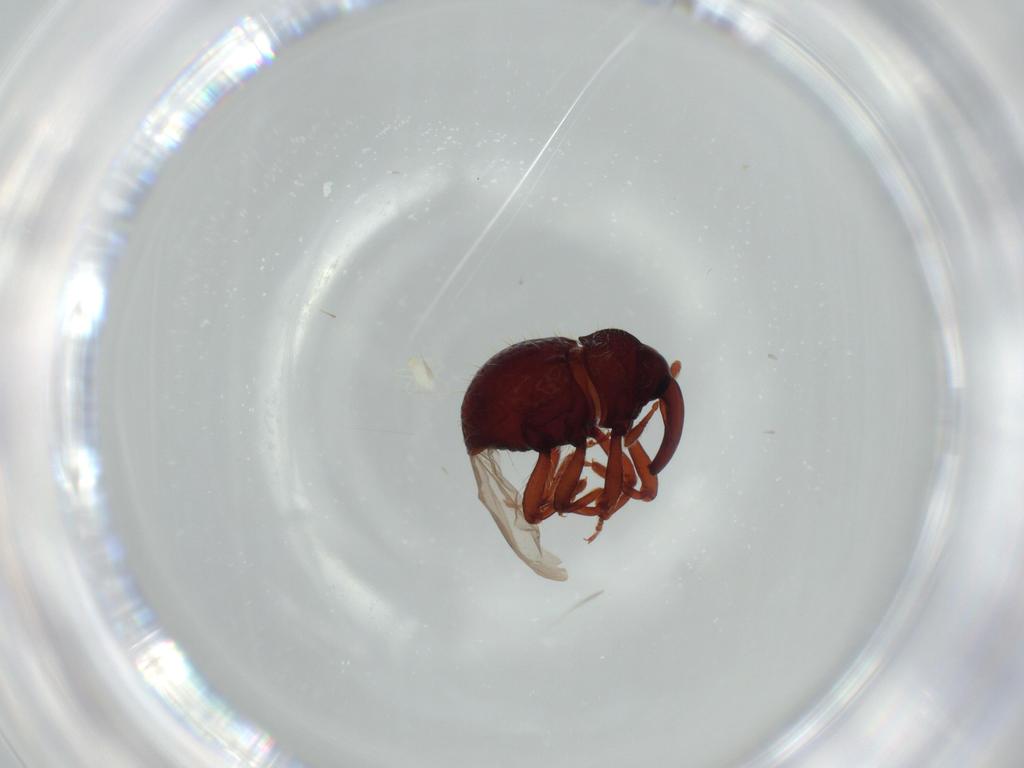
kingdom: Animalia
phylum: Arthropoda
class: Insecta
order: Coleoptera
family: Curculionidae
